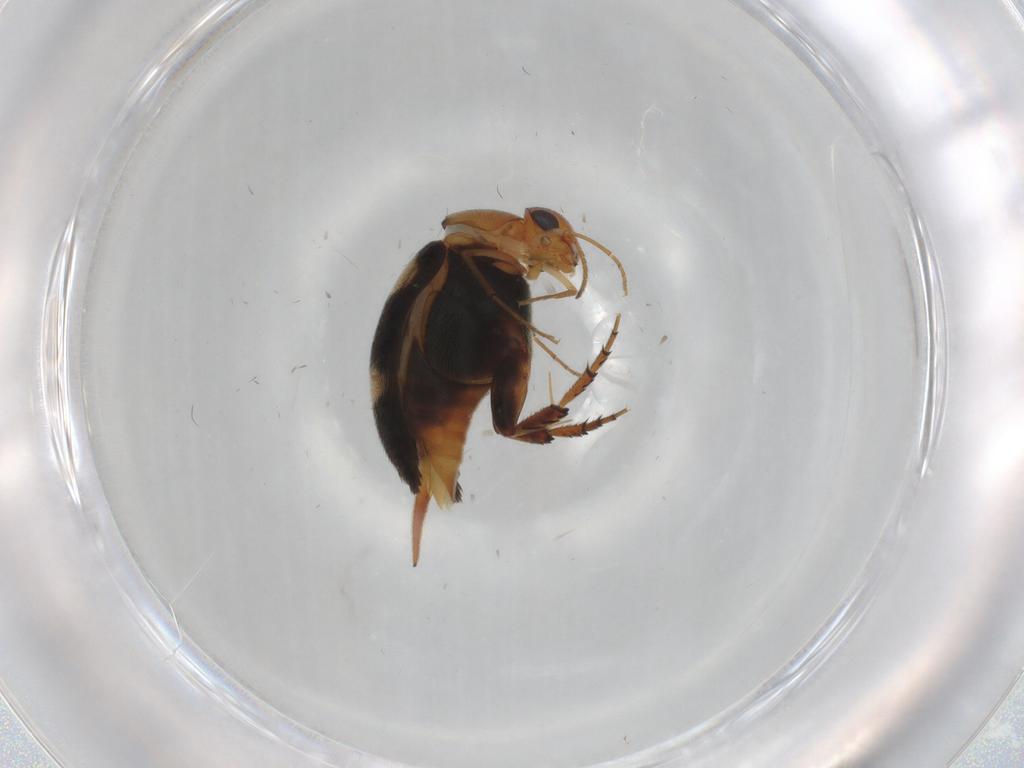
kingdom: Animalia
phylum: Arthropoda
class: Insecta
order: Coleoptera
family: Mordellidae
